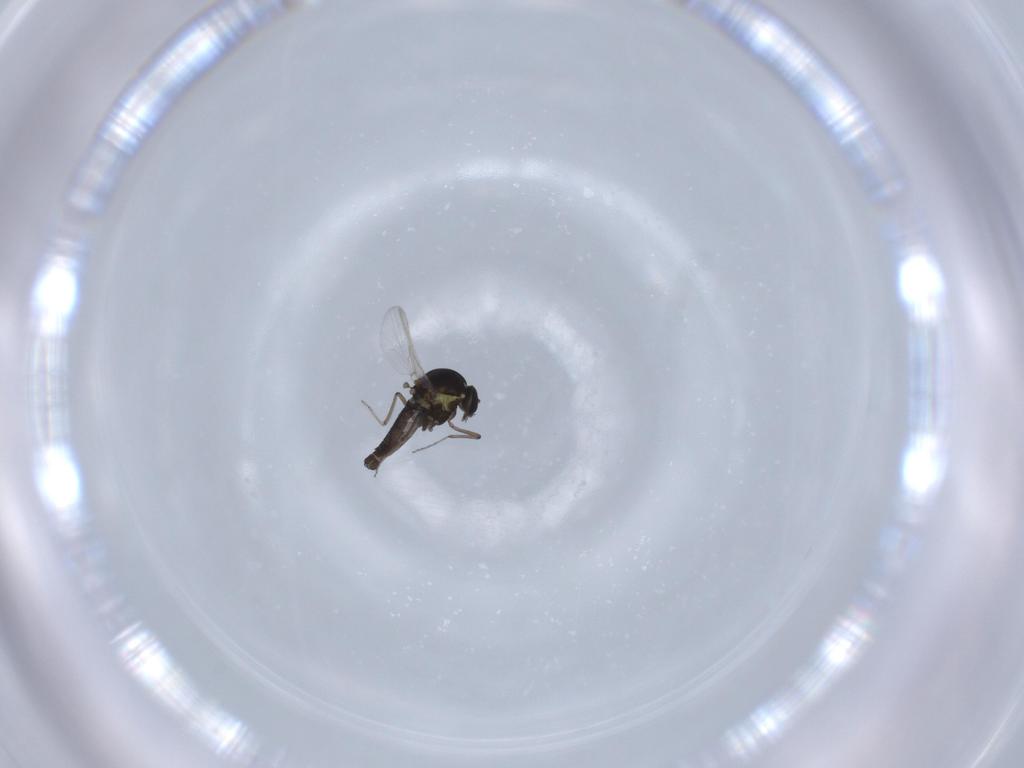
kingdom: Animalia
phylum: Arthropoda
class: Insecta
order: Diptera
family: Ceratopogonidae
